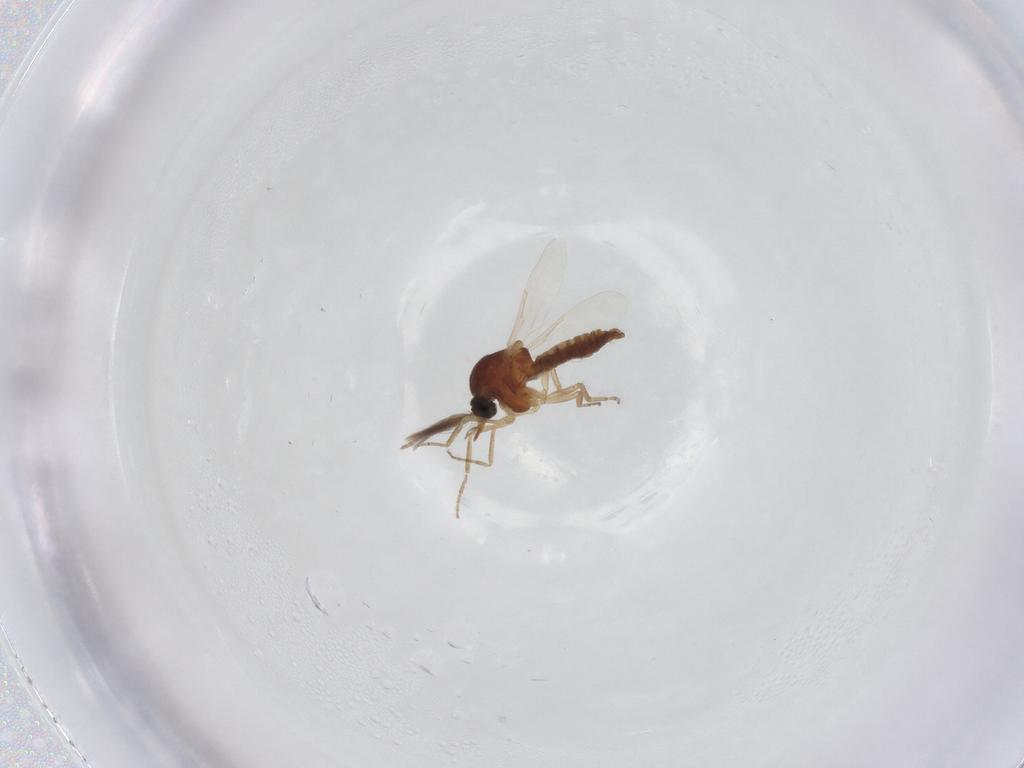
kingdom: Animalia
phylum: Arthropoda
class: Insecta
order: Diptera
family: Ceratopogonidae
